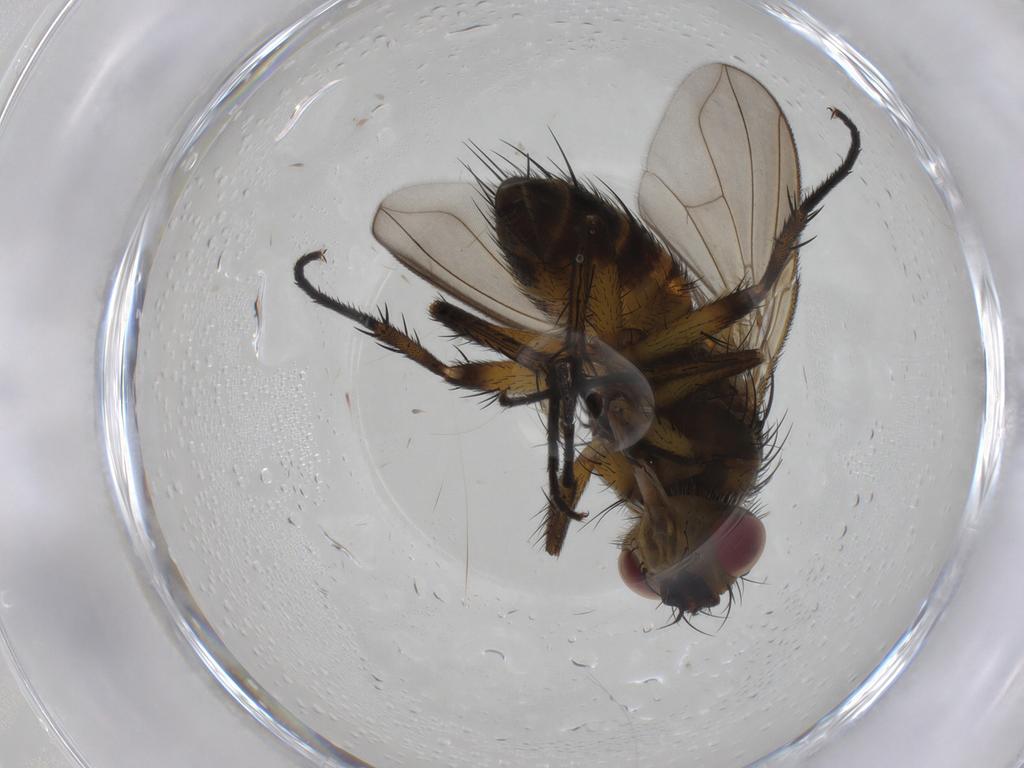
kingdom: Animalia
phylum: Arthropoda
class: Insecta
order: Diptera
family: Tachinidae
